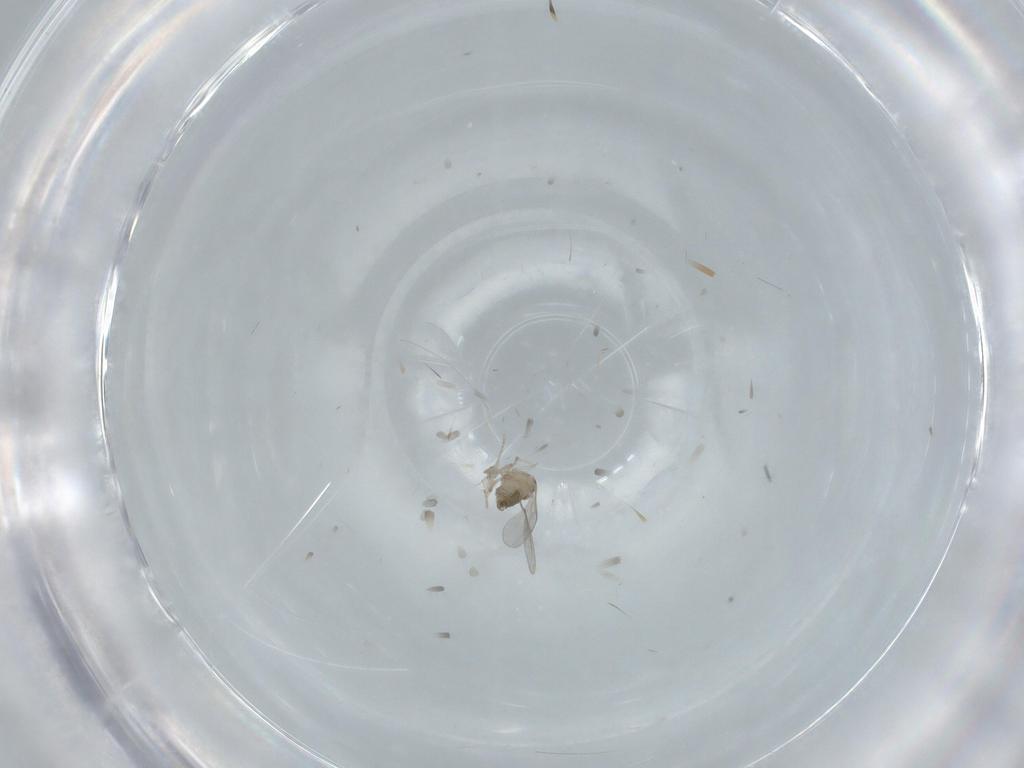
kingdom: Animalia
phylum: Arthropoda
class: Insecta
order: Diptera
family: Cecidomyiidae
